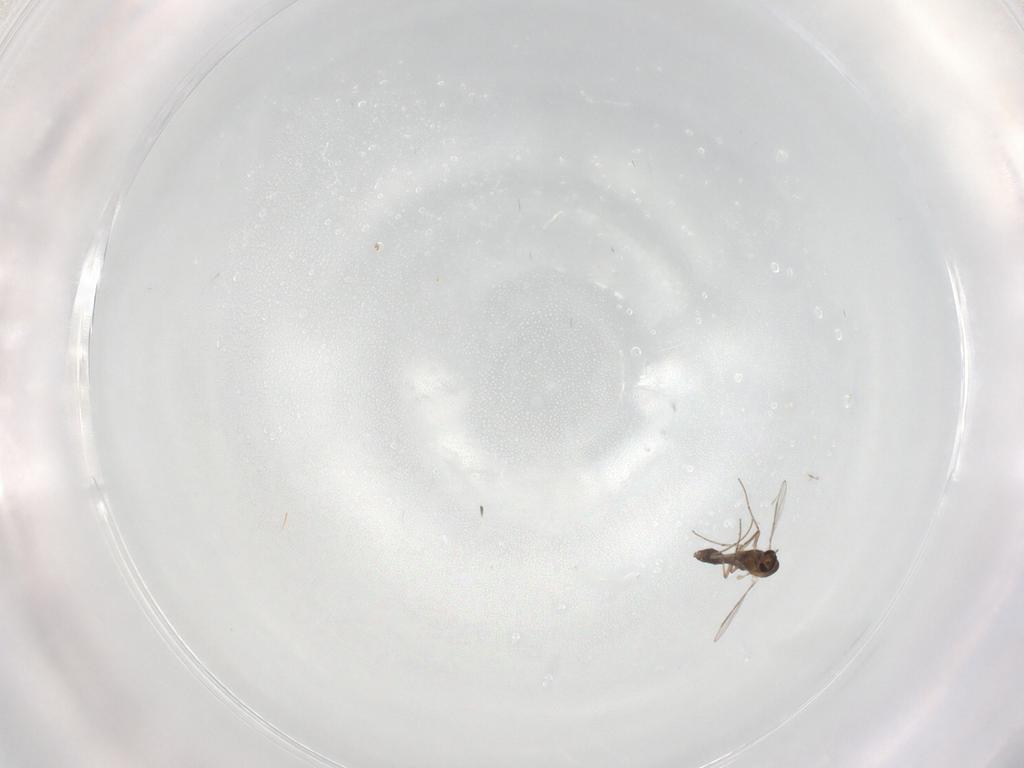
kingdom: Animalia
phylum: Arthropoda
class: Insecta
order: Diptera
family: Chironomidae
